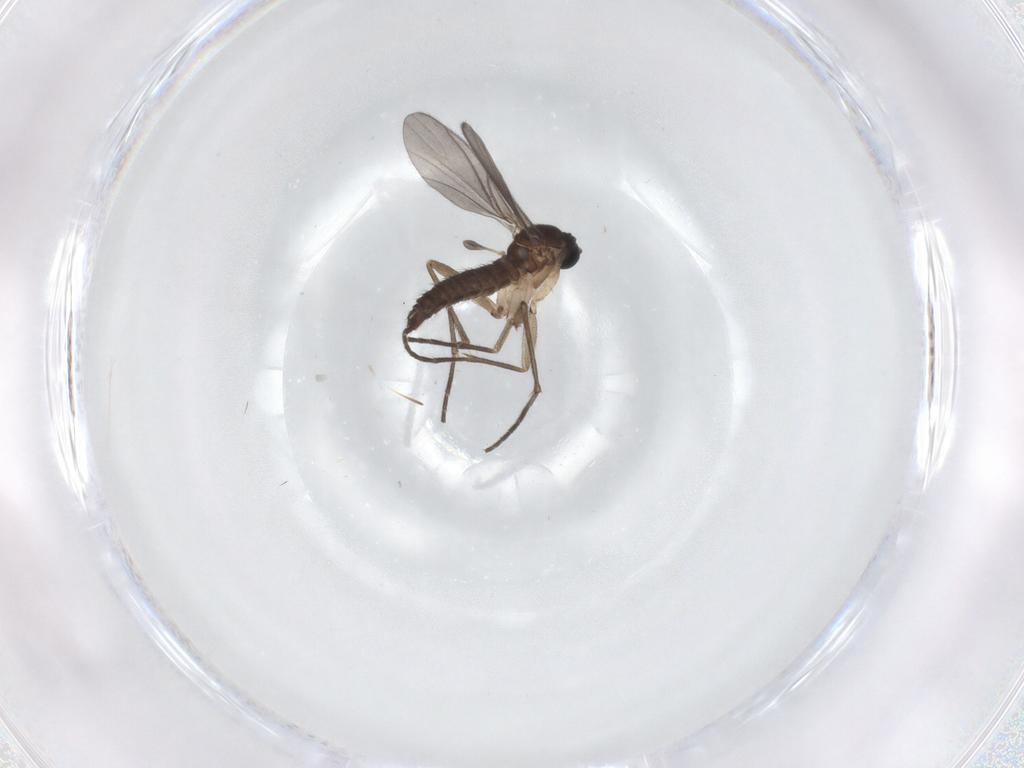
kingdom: Animalia
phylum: Arthropoda
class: Insecta
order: Diptera
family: Sciaridae
